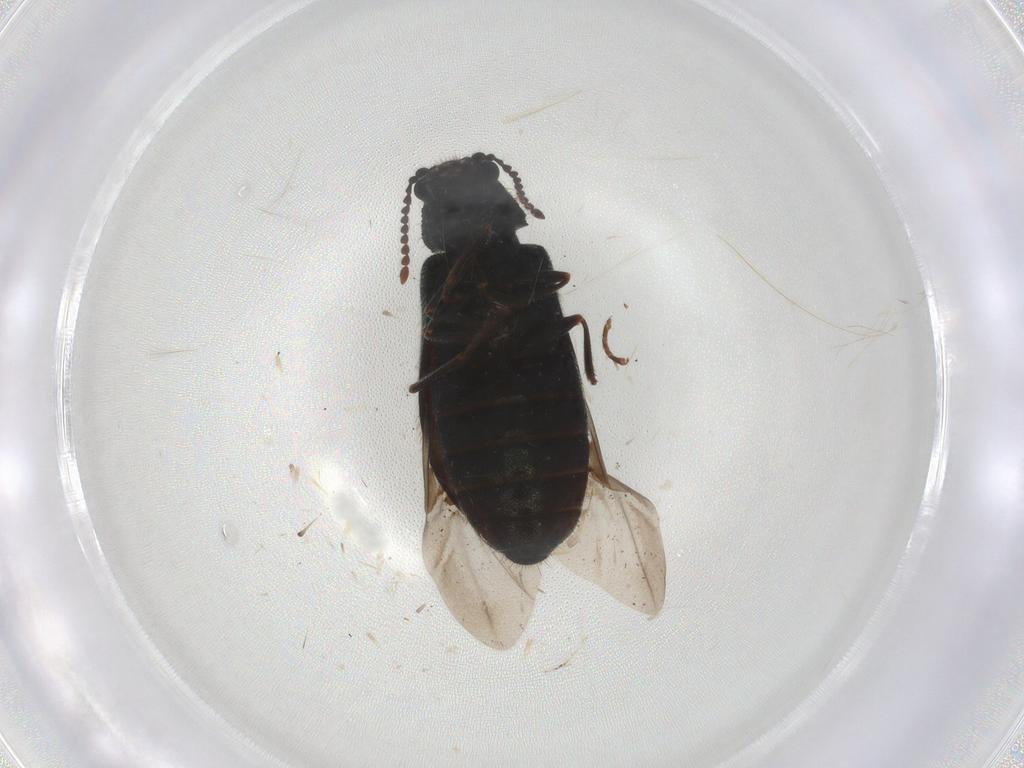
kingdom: Animalia
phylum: Arthropoda
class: Insecta
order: Coleoptera
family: Melyridae
